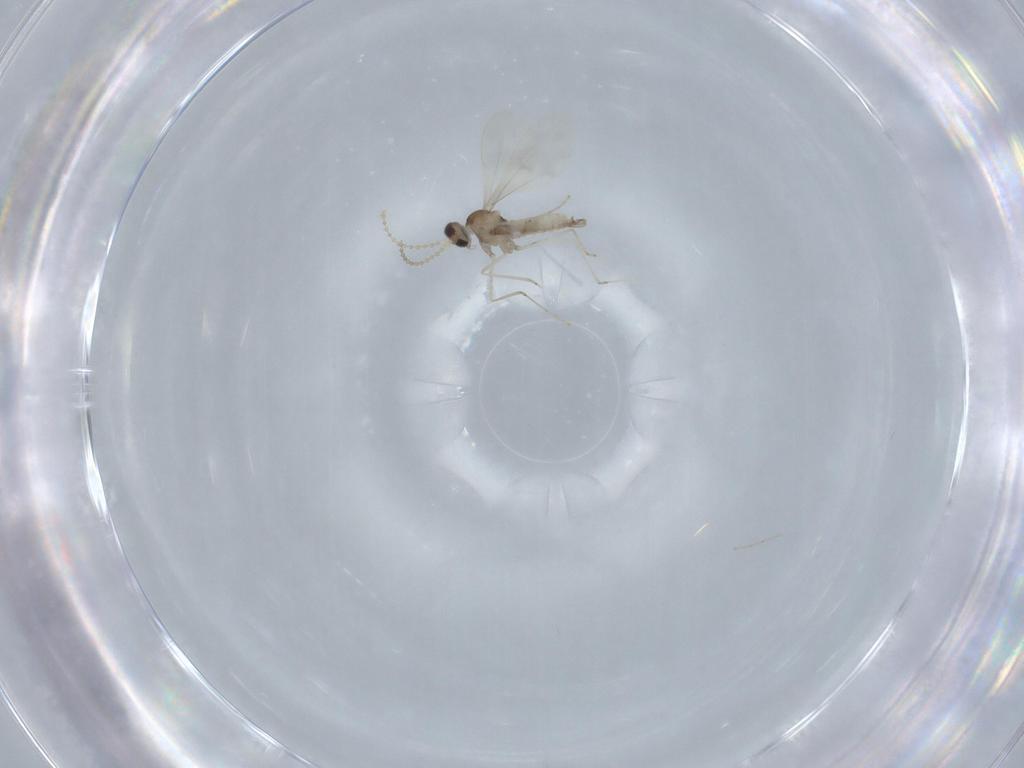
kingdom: Animalia
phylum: Arthropoda
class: Insecta
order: Diptera
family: Cecidomyiidae
